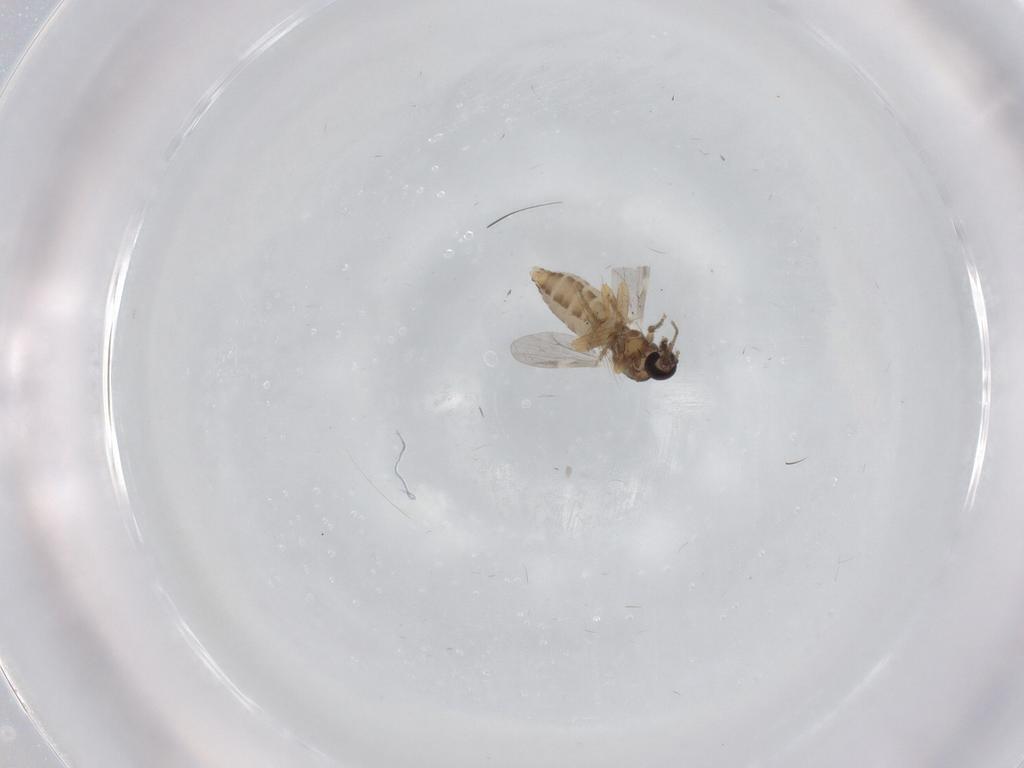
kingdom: Animalia
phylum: Arthropoda
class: Insecta
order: Diptera
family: Ceratopogonidae
